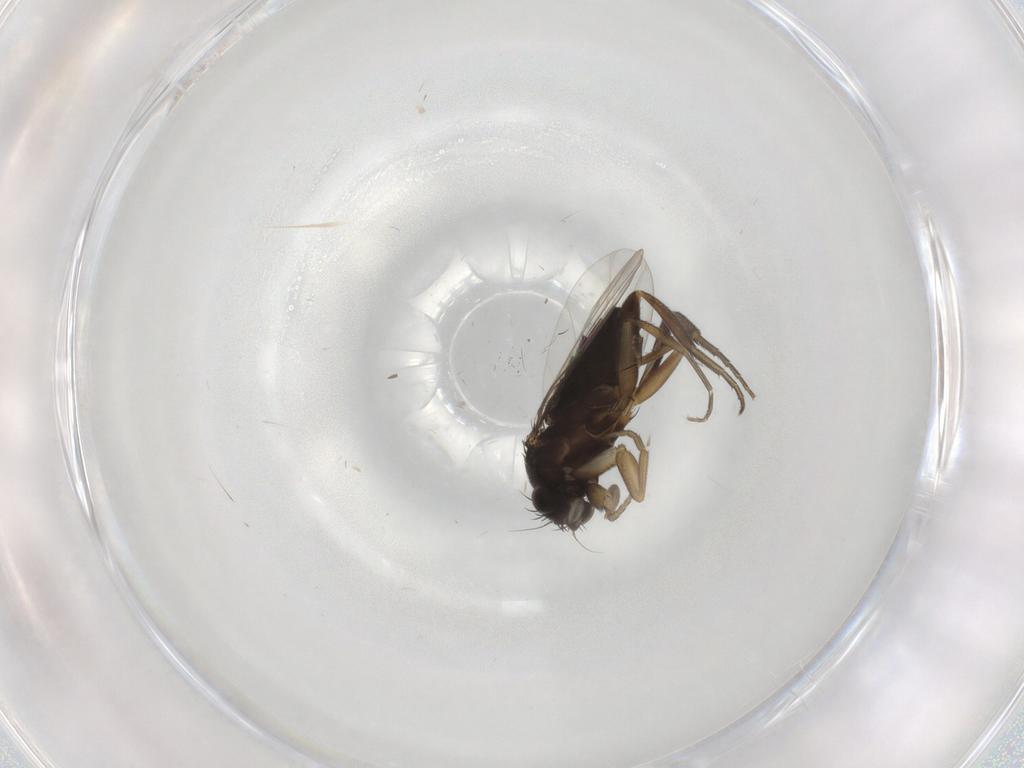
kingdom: Animalia
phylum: Arthropoda
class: Insecta
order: Diptera
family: Phoridae
